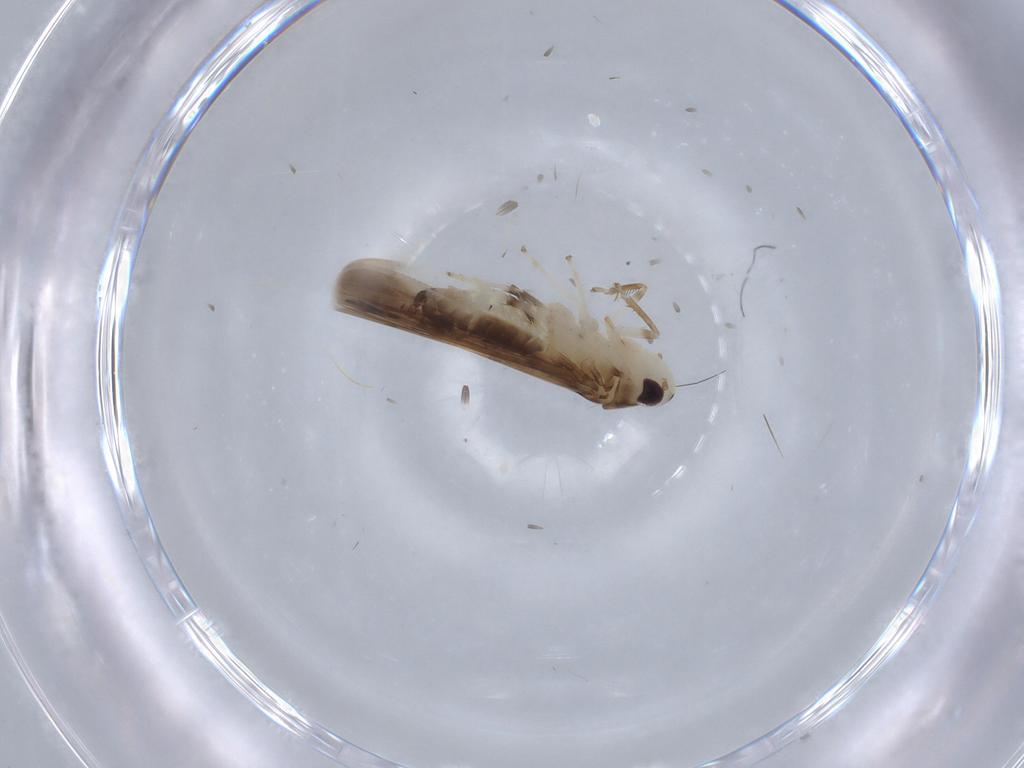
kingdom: Animalia
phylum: Arthropoda
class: Insecta
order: Hemiptera
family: Cicadellidae
